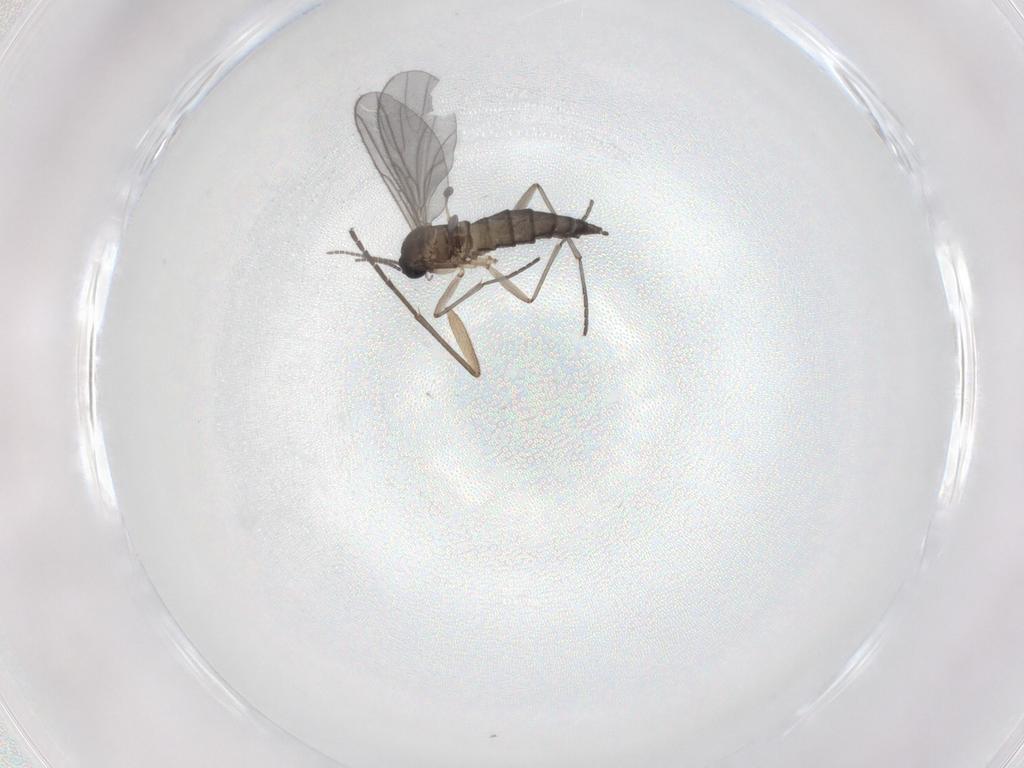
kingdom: Animalia
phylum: Arthropoda
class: Insecta
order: Diptera
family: Sciaridae
